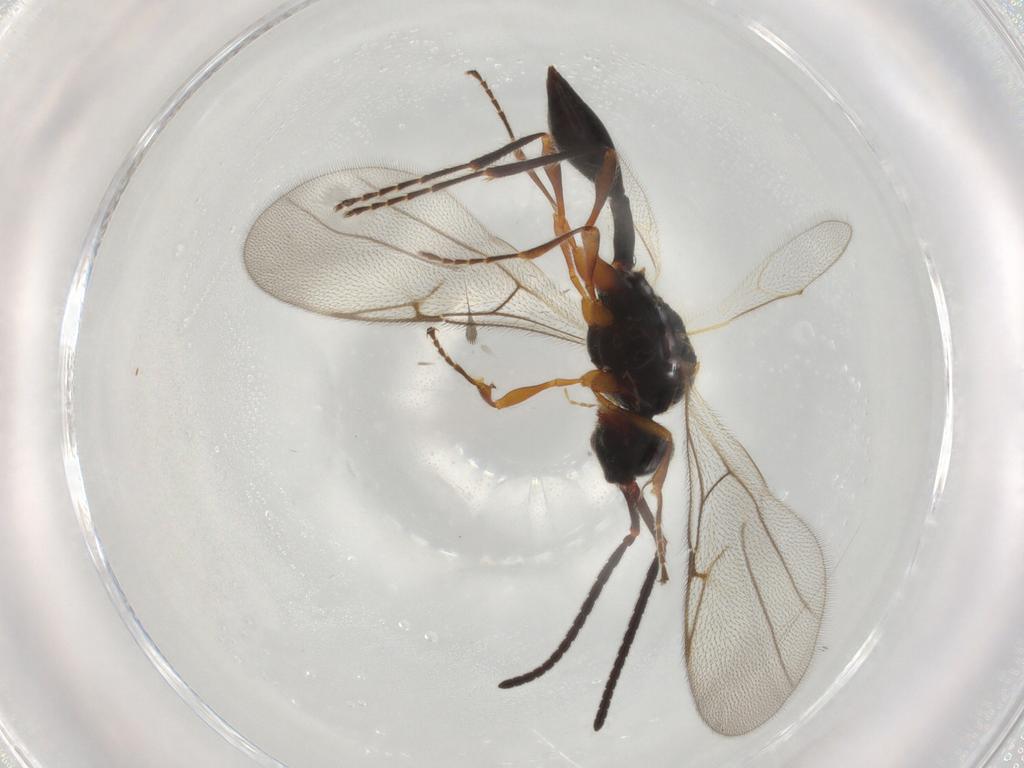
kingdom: Animalia
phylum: Arthropoda
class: Insecta
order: Hymenoptera
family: Diapriidae
